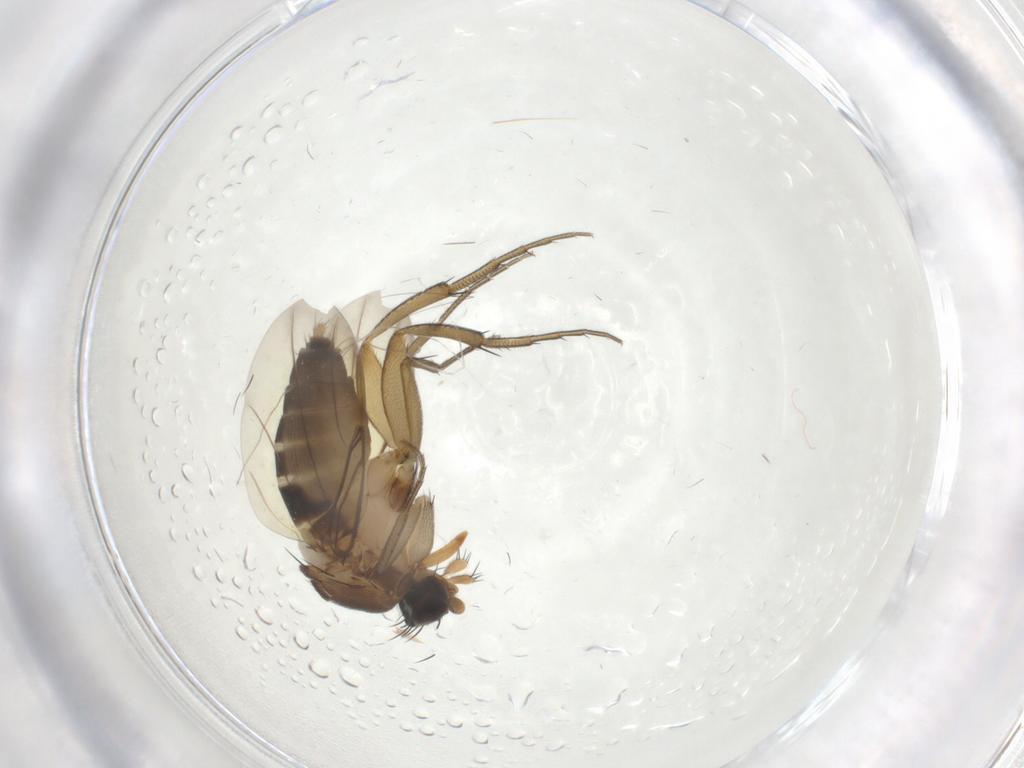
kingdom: Animalia
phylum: Arthropoda
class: Insecta
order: Diptera
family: Phoridae
